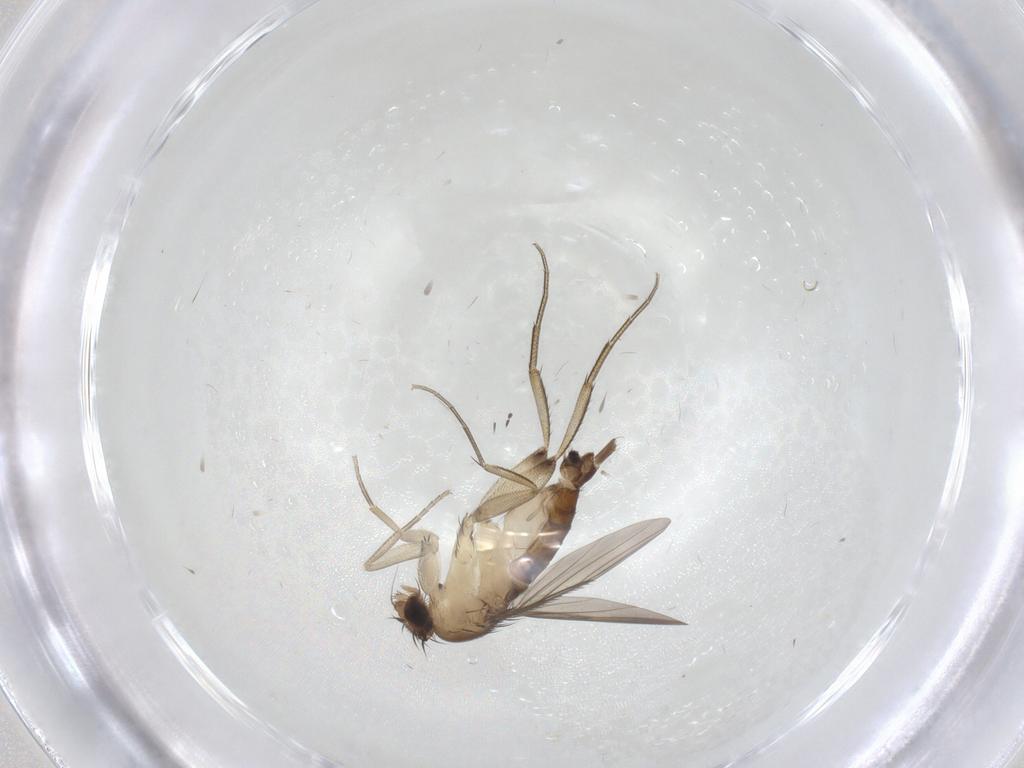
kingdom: Animalia
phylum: Arthropoda
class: Insecta
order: Diptera
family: Phoridae
